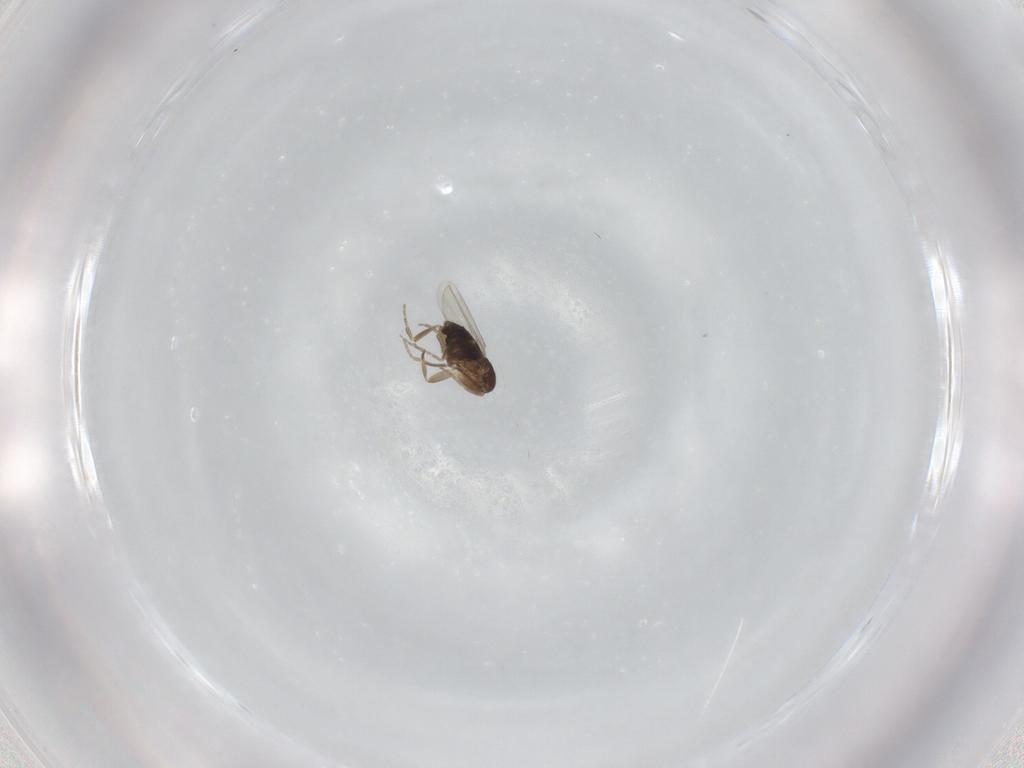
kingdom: Animalia
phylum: Arthropoda
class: Insecta
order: Diptera
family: Phoridae
